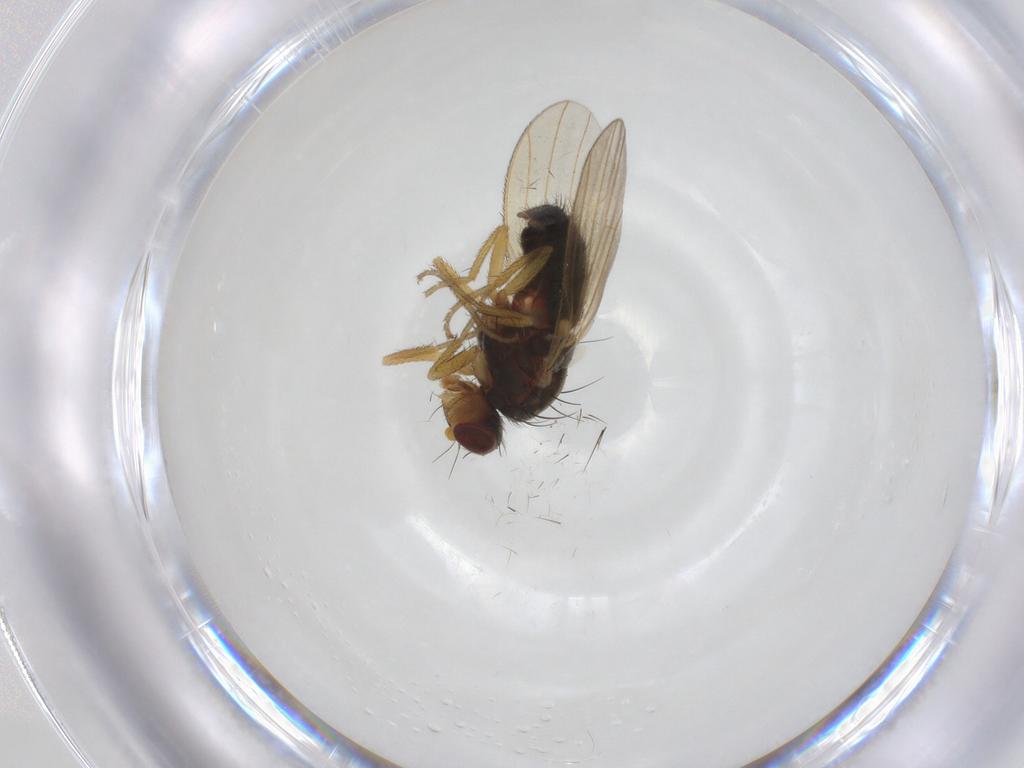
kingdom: Animalia
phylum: Arthropoda
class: Insecta
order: Diptera
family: Heleomyzidae
